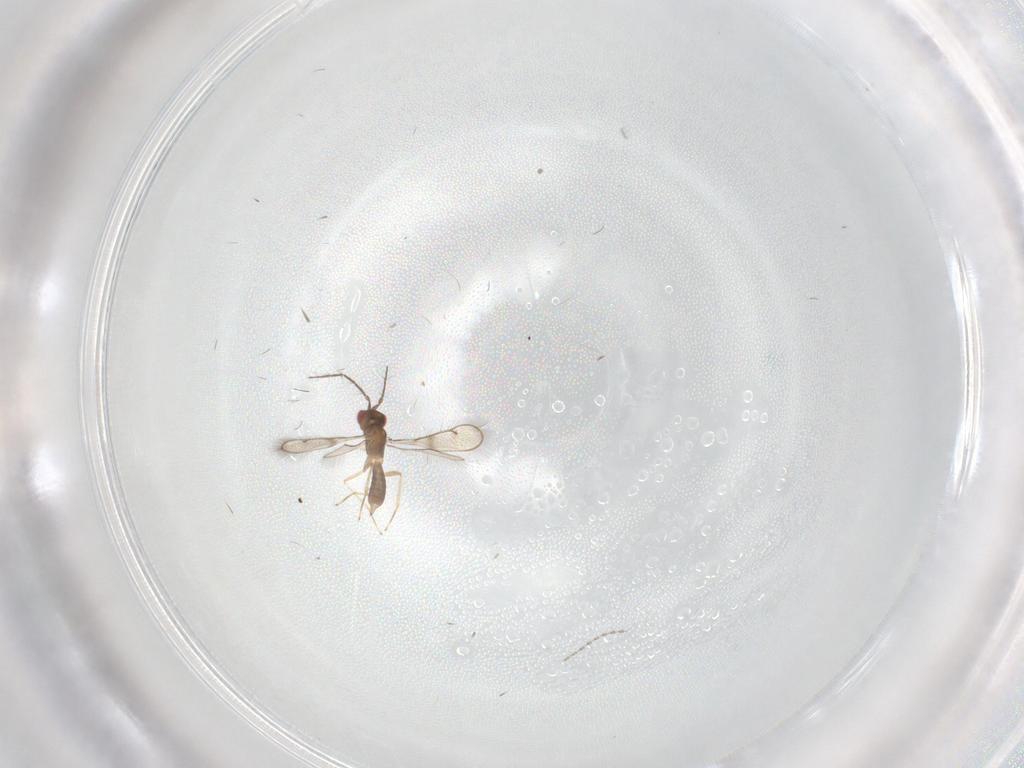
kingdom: Animalia
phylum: Arthropoda
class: Insecta
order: Hymenoptera
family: Chalcididae
